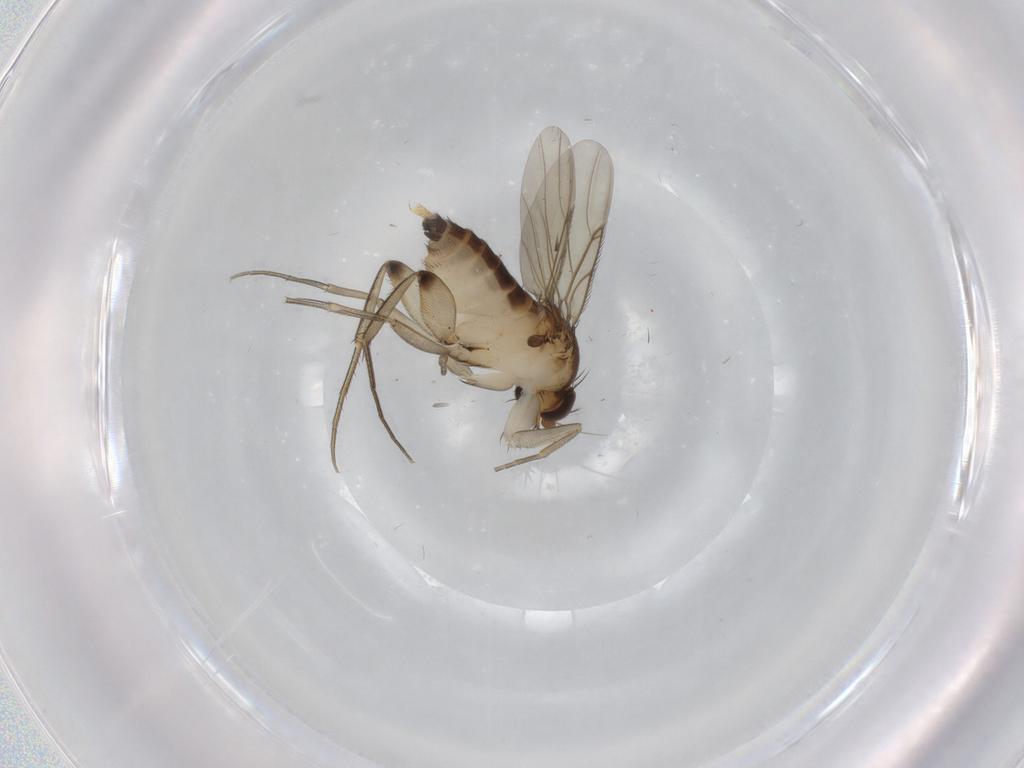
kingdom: Animalia
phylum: Arthropoda
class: Insecta
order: Diptera
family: Phoridae
